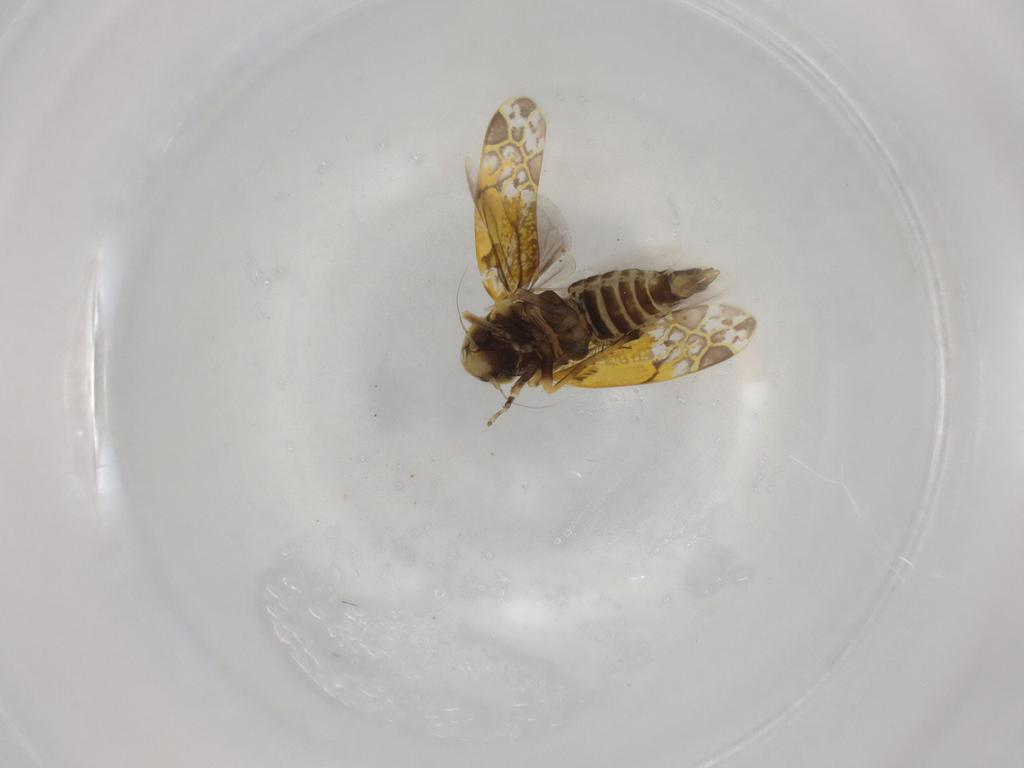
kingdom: Animalia
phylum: Arthropoda
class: Insecta
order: Hemiptera
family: Cicadellidae
